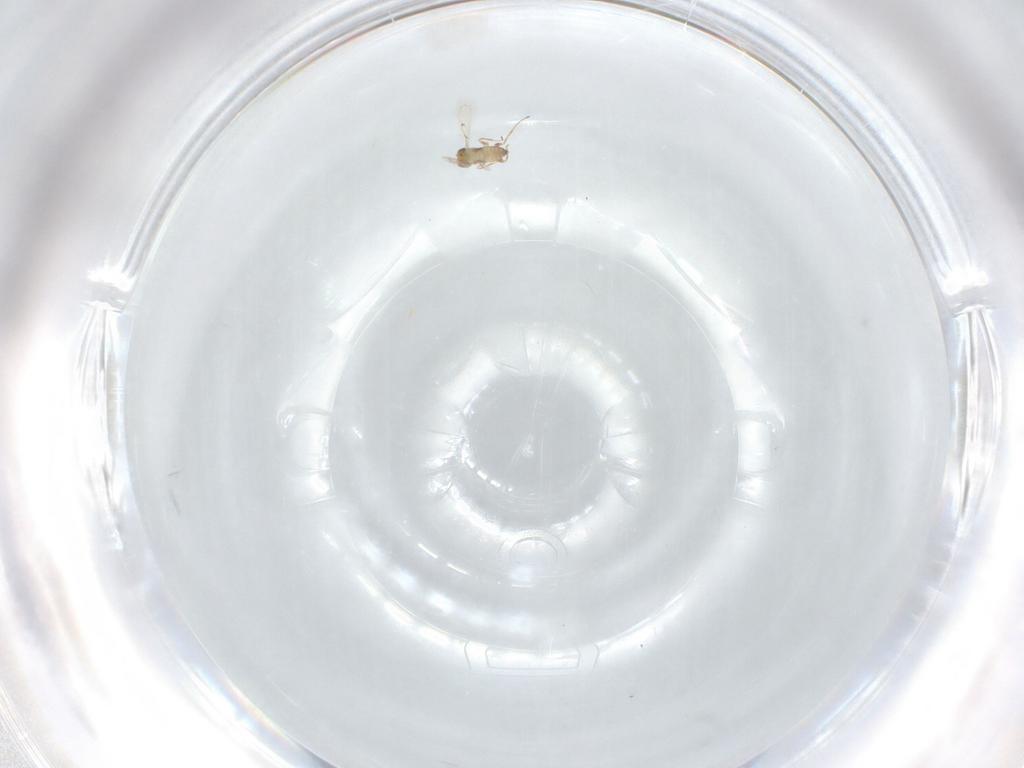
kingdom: Animalia
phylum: Arthropoda
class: Insecta
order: Hymenoptera
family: Trichogrammatidae
